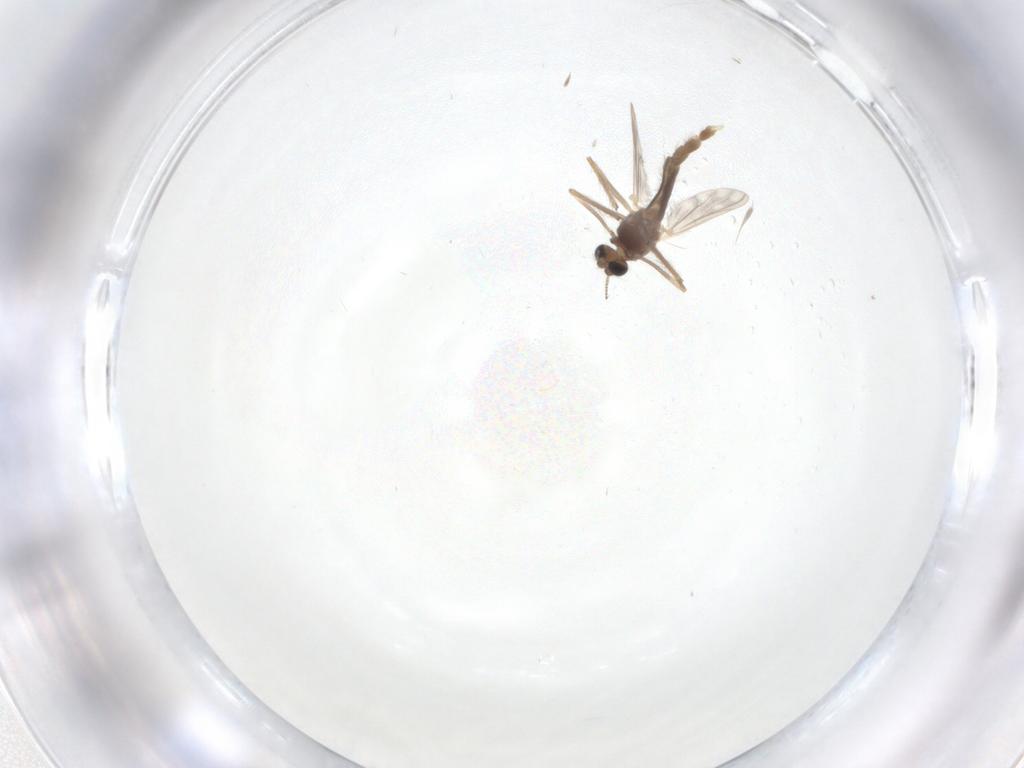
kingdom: Animalia
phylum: Arthropoda
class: Insecta
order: Diptera
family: Chironomidae
